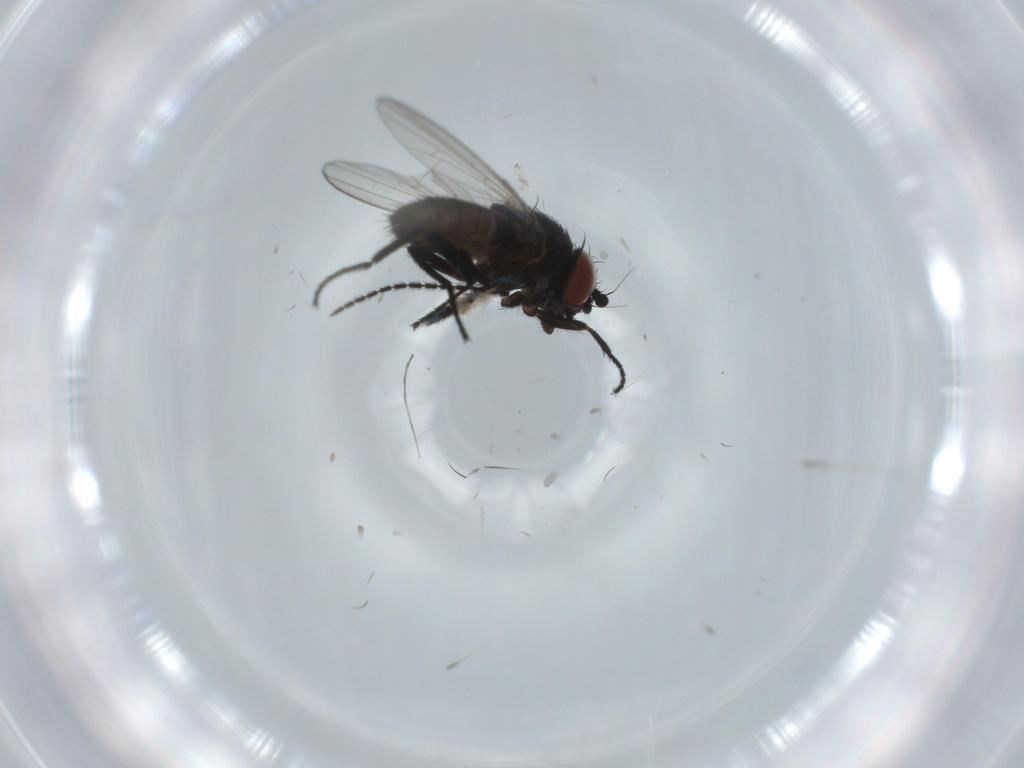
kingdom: Animalia
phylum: Arthropoda
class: Insecta
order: Diptera
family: Milichiidae
